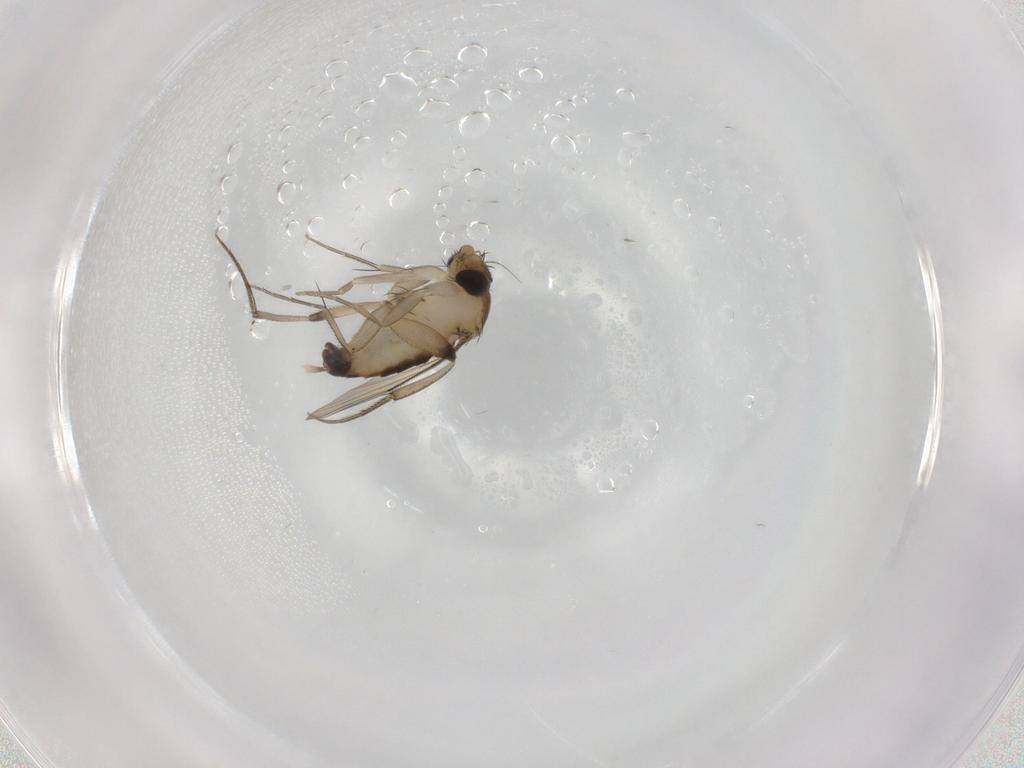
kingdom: Animalia
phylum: Arthropoda
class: Insecta
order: Diptera
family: Phoridae
